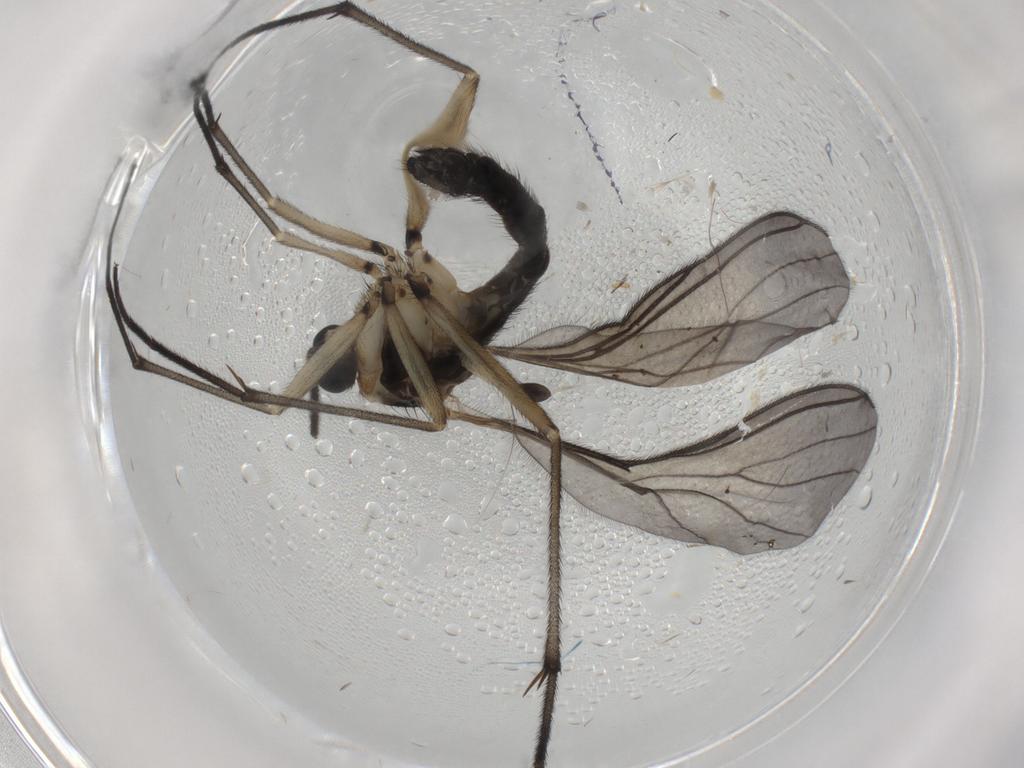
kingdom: Animalia
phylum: Arthropoda
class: Insecta
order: Diptera
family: Sciaridae
